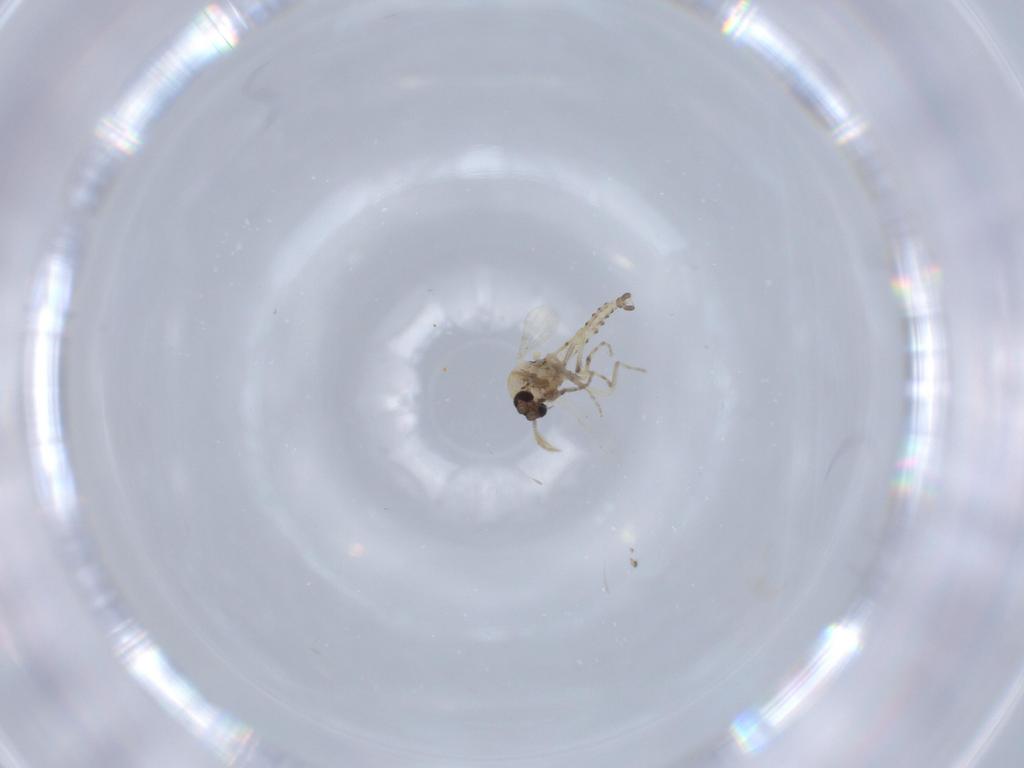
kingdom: Animalia
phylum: Arthropoda
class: Insecta
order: Diptera
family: Ceratopogonidae
